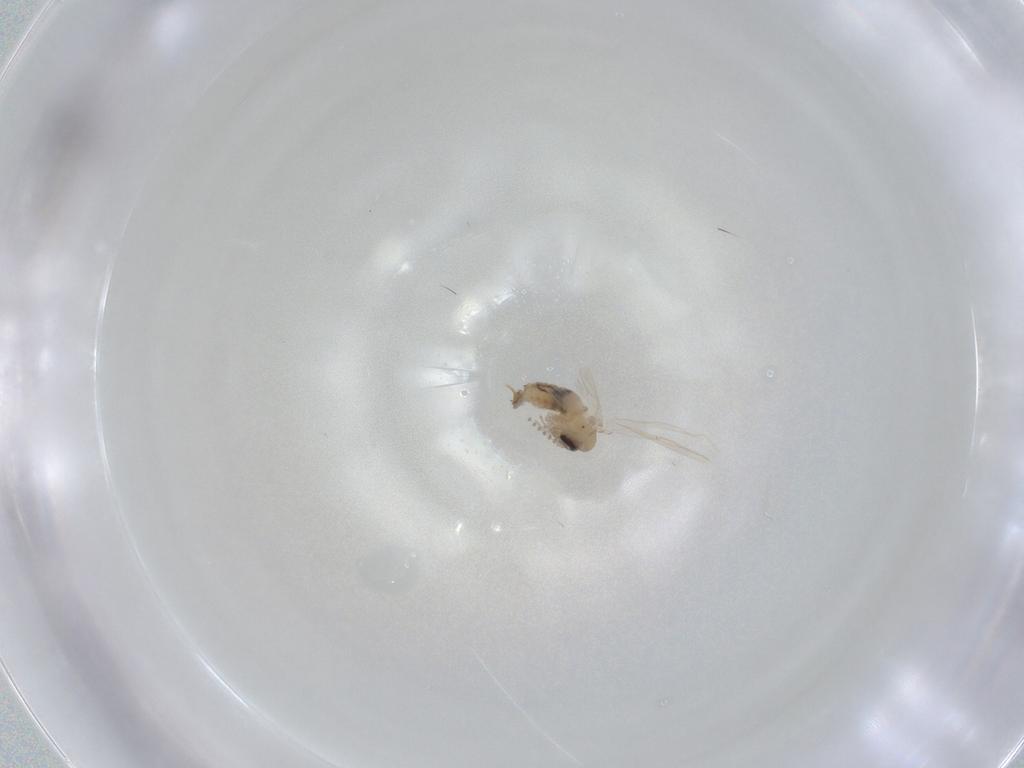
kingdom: Animalia
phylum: Arthropoda
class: Insecta
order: Diptera
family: Psychodidae
